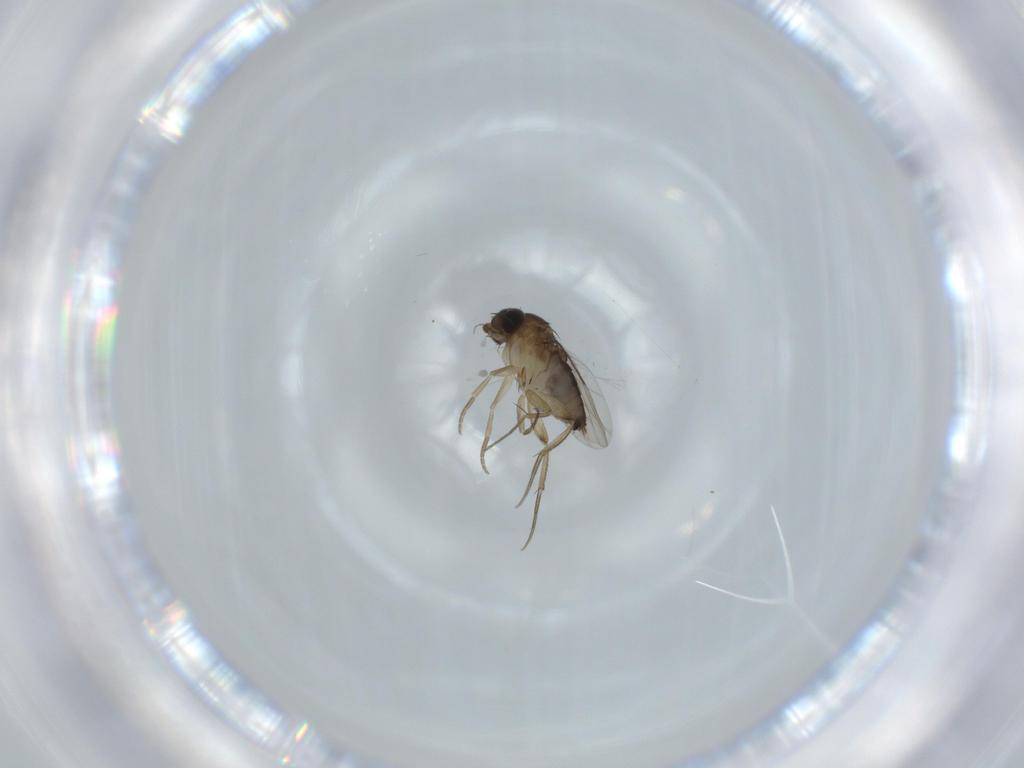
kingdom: Animalia
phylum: Arthropoda
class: Insecta
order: Diptera
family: Phoridae
